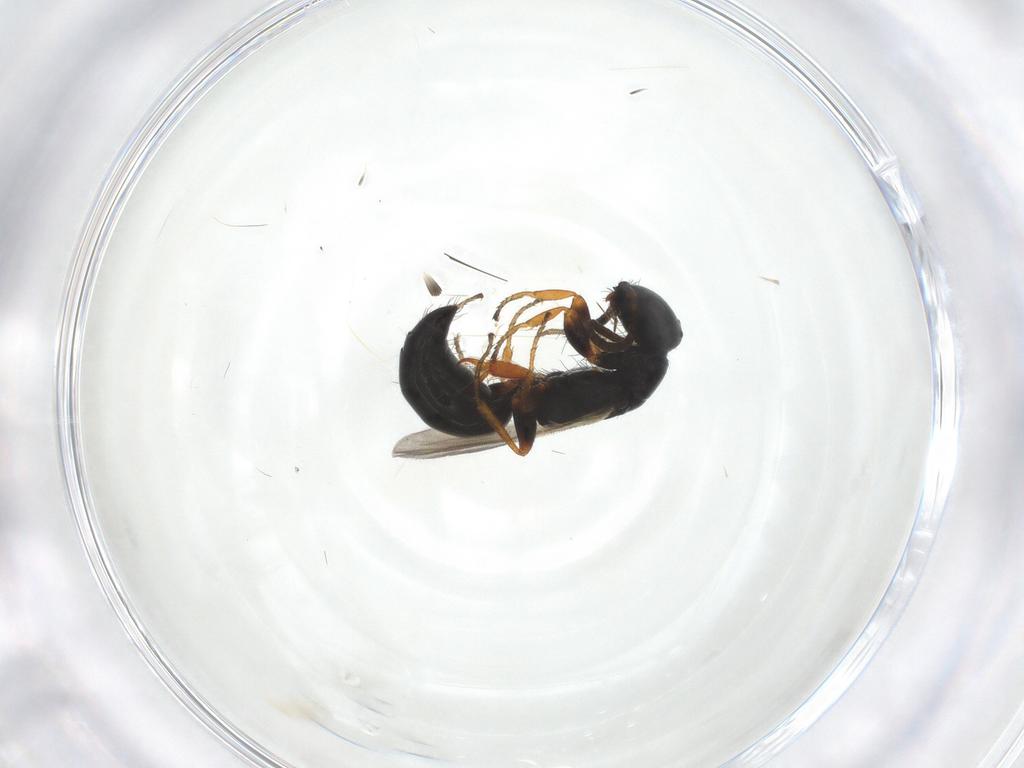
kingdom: Animalia
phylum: Arthropoda
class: Insecta
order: Hymenoptera
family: Bethylidae
